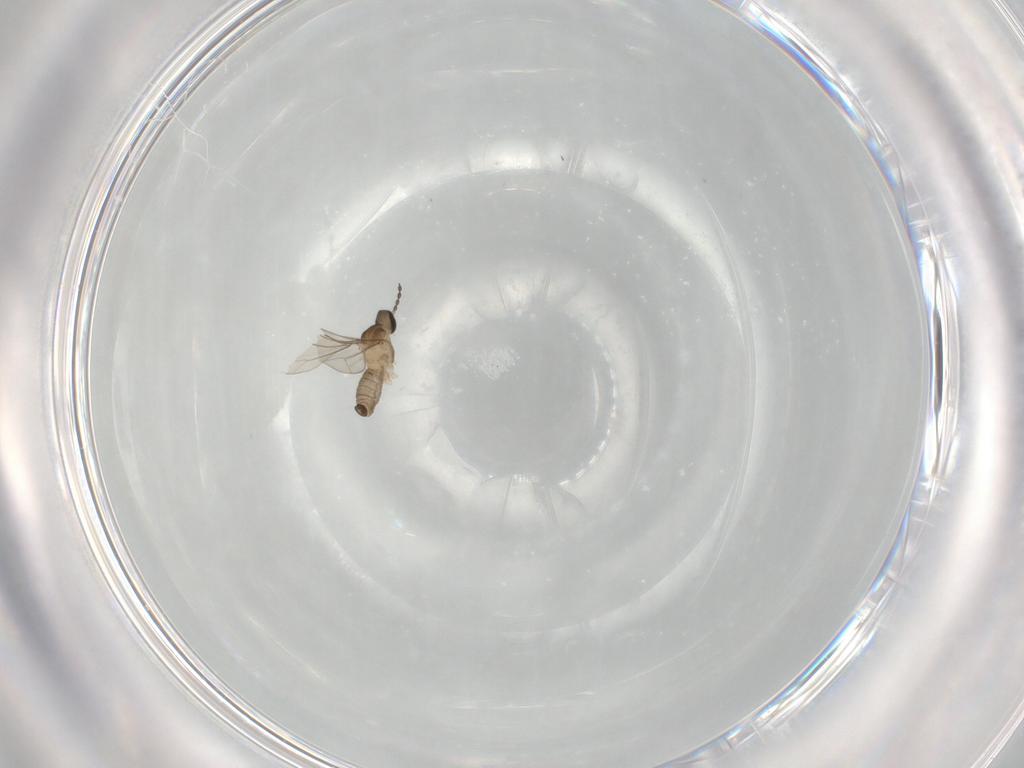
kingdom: Animalia
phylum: Arthropoda
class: Insecta
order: Diptera
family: Cecidomyiidae
